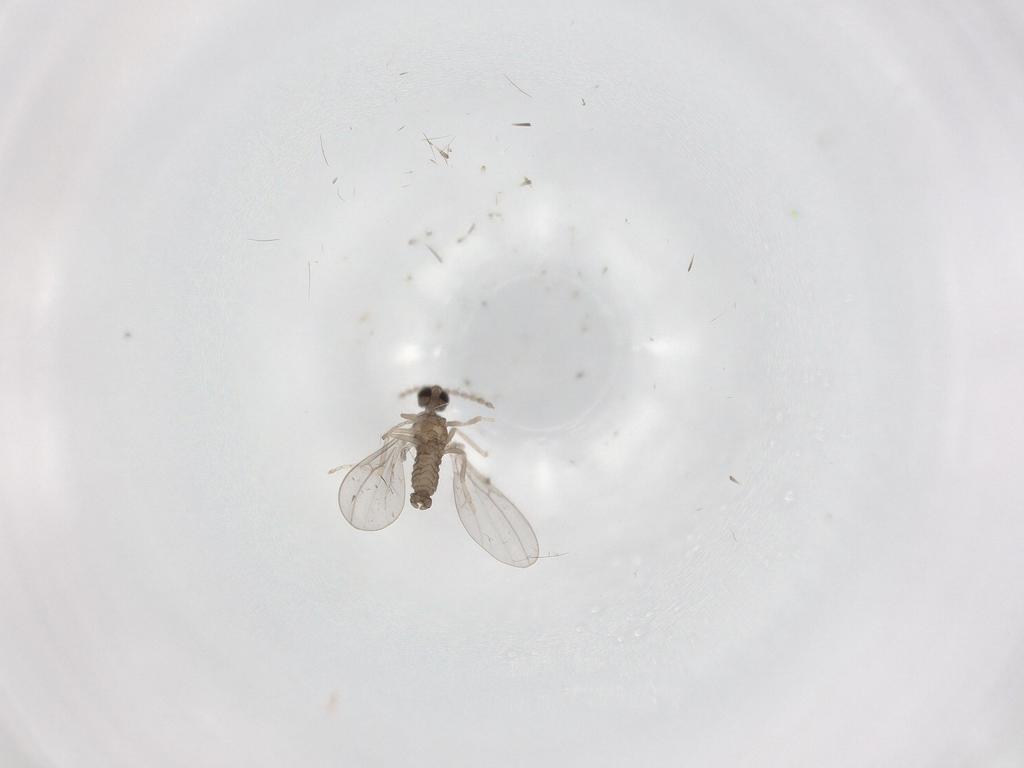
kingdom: Animalia
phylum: Arthropoda
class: Insecta
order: Diptera
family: Cecidomyiidae
